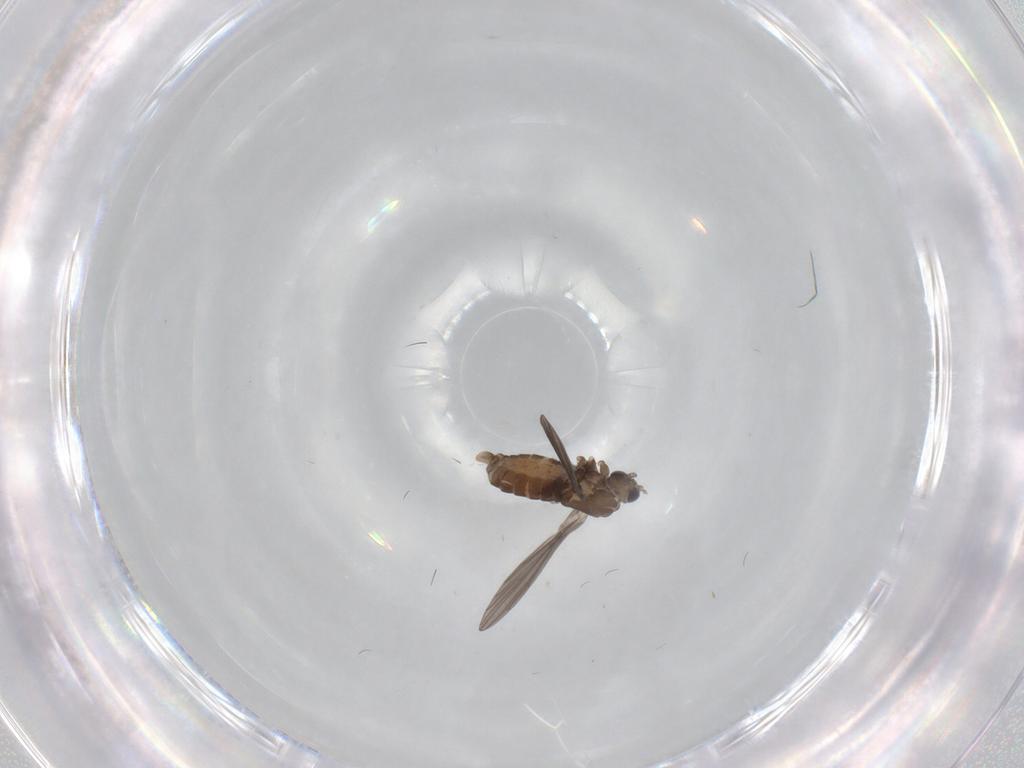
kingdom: Animalia
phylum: Arthropoda
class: Insecta
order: Diptera
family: Psychodidae
